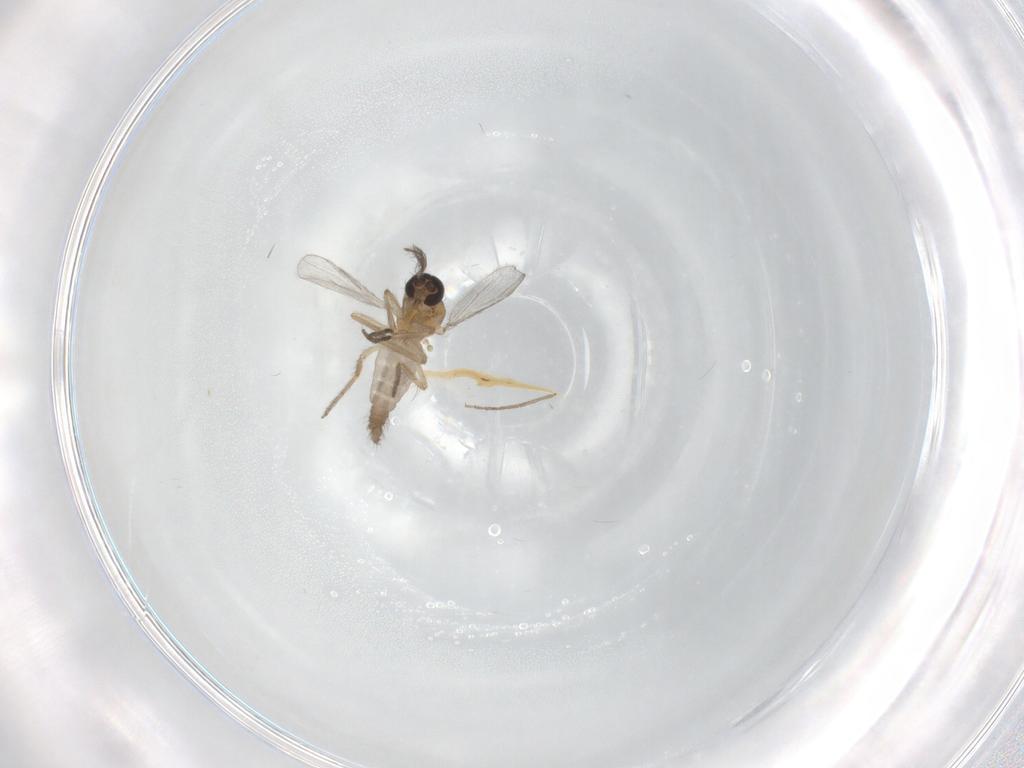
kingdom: Animalia
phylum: Arthropoda
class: Insecta
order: Diptera
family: Ceratopogonidae
